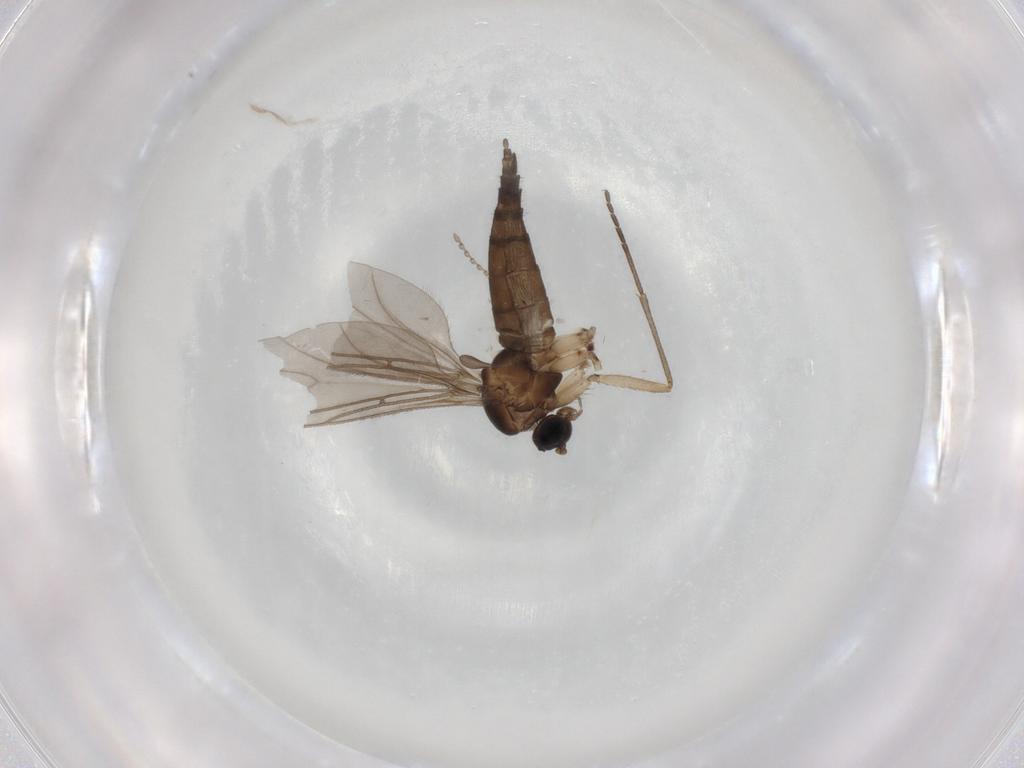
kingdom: Animalia
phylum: Arthropoda
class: Insecta
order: Diptera
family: Sciaridae
